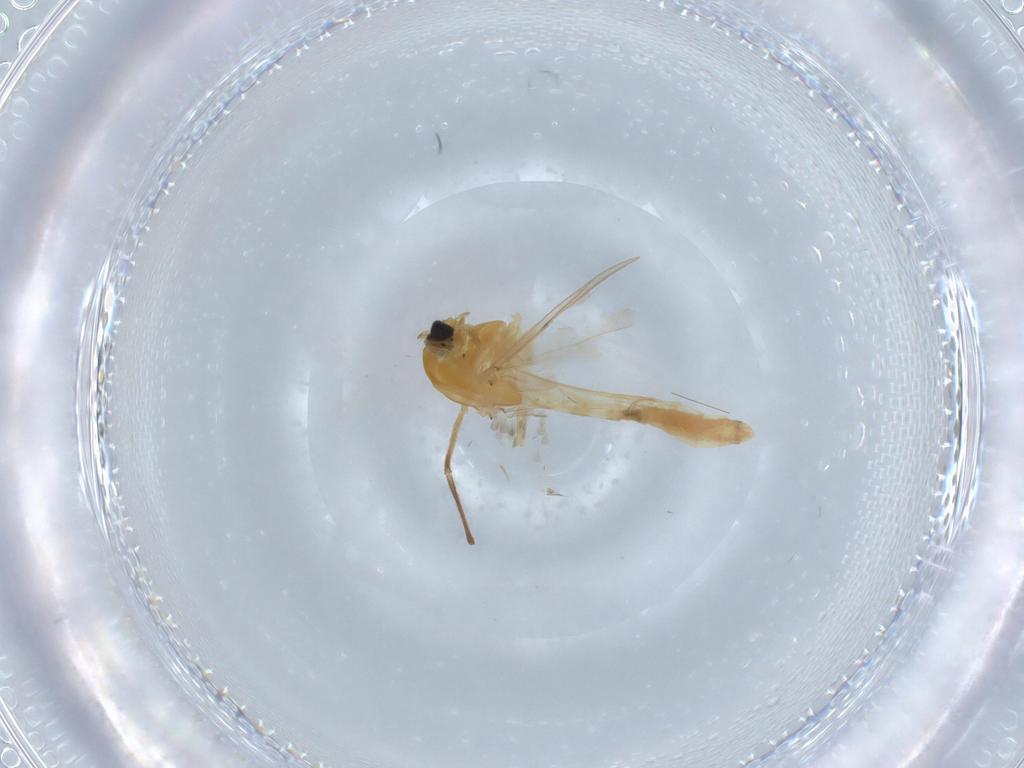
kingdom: Animalia
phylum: Arthropoda
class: Insecta
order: Diptera
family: Chironomidae
